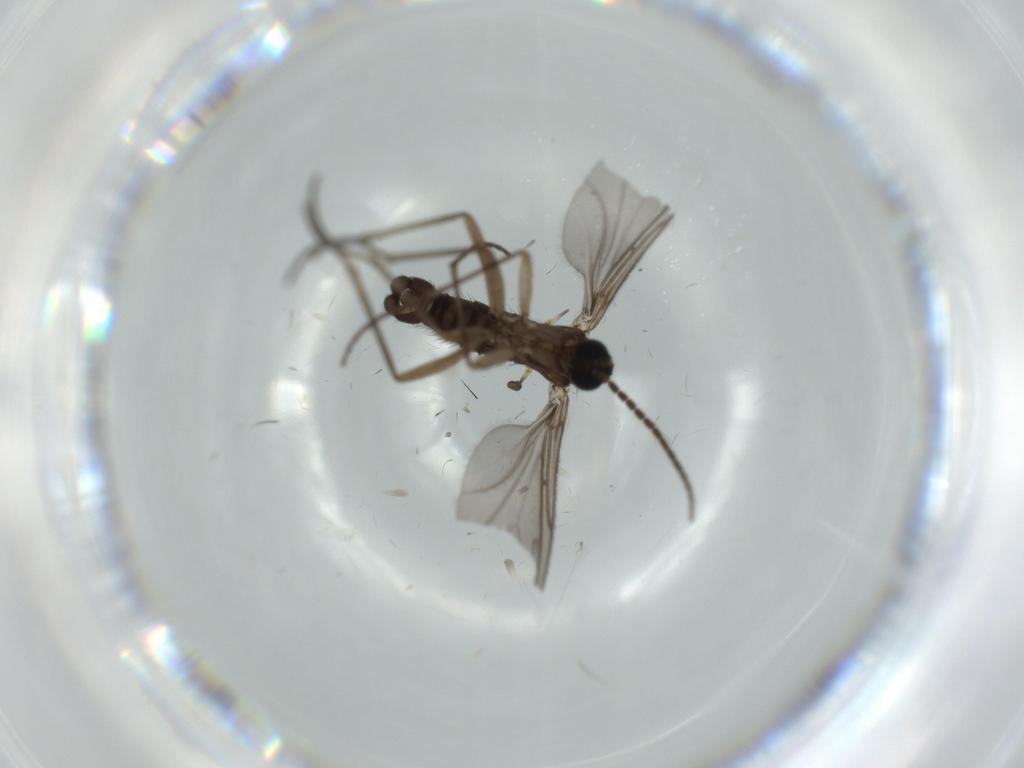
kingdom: Animalia
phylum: Arthropoda
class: Insecta
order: Diptera
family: Sciaridae
